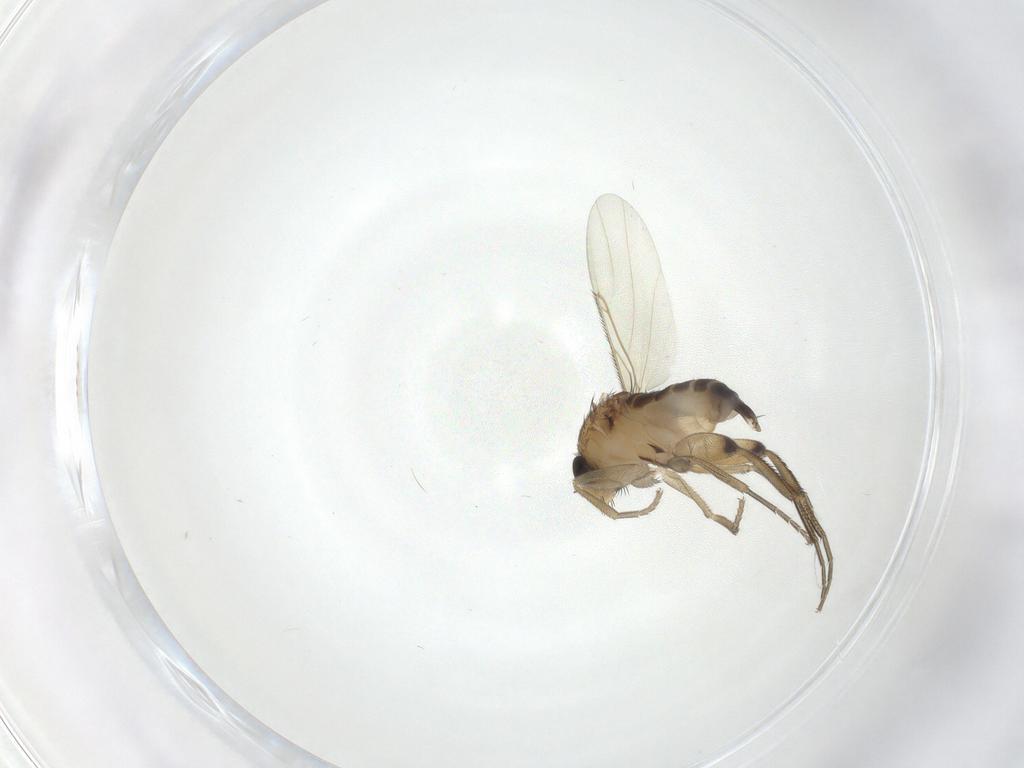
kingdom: Animalia
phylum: Arthropoda
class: Insecta
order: Diptera
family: Phoridae
